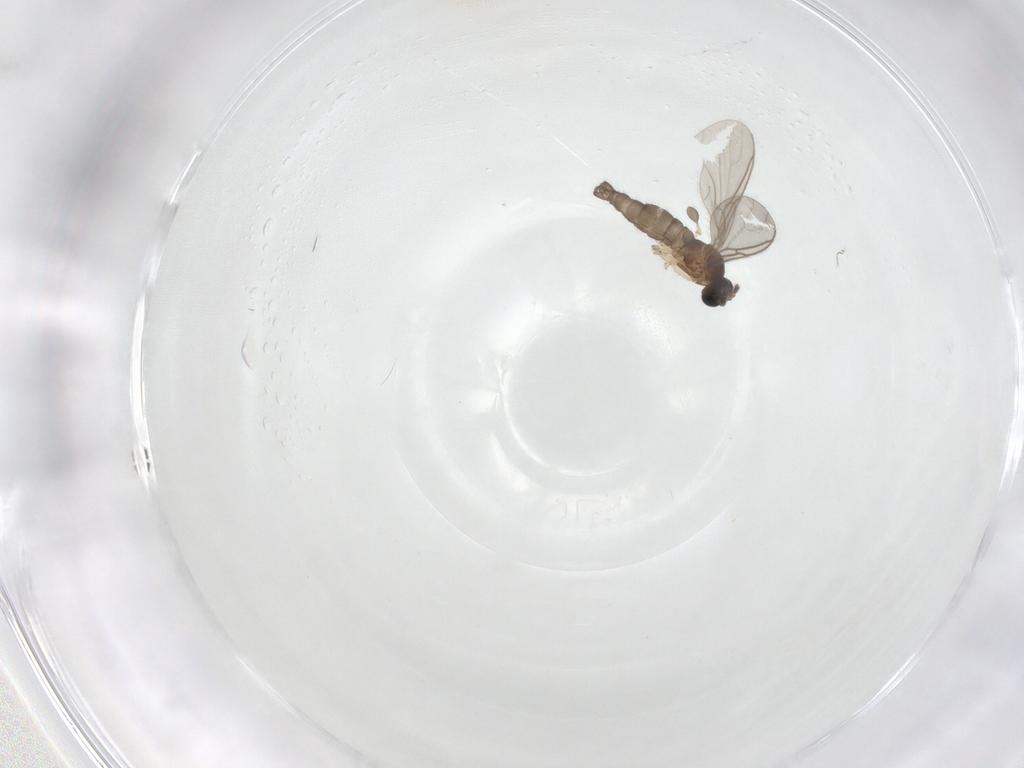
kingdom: Animalia
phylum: Arthropoda
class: Insecta
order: Diptera
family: Sciaridae
